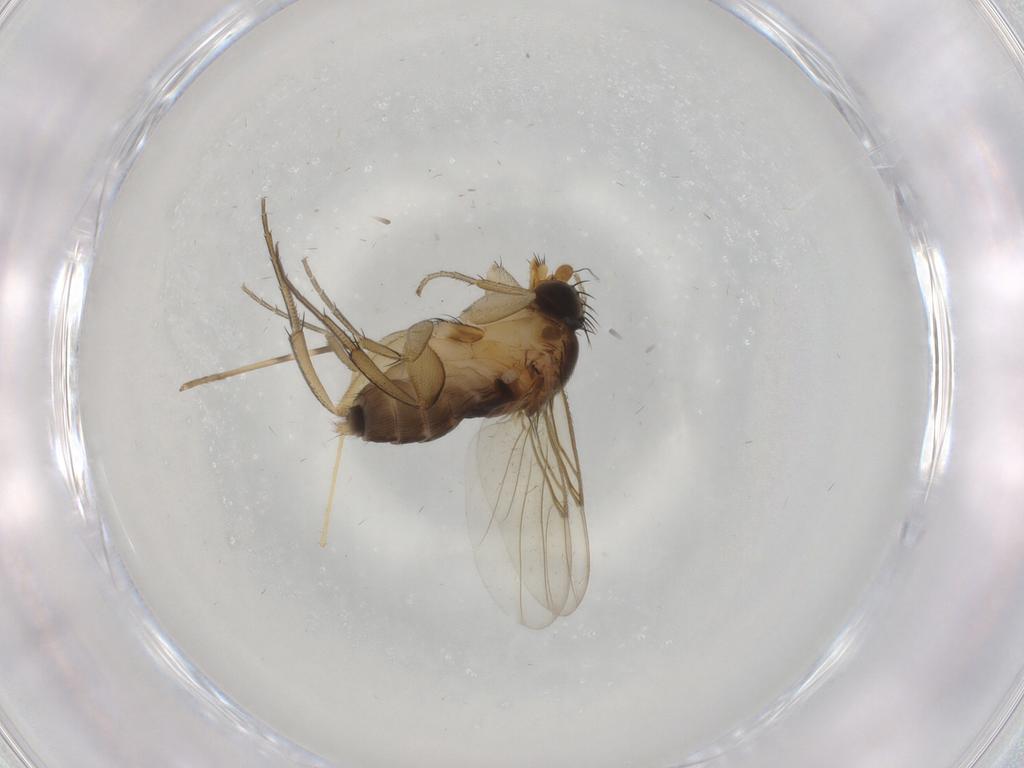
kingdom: Animalia
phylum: Arthropoda
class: Insecta
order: Diptera
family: Phoridae
